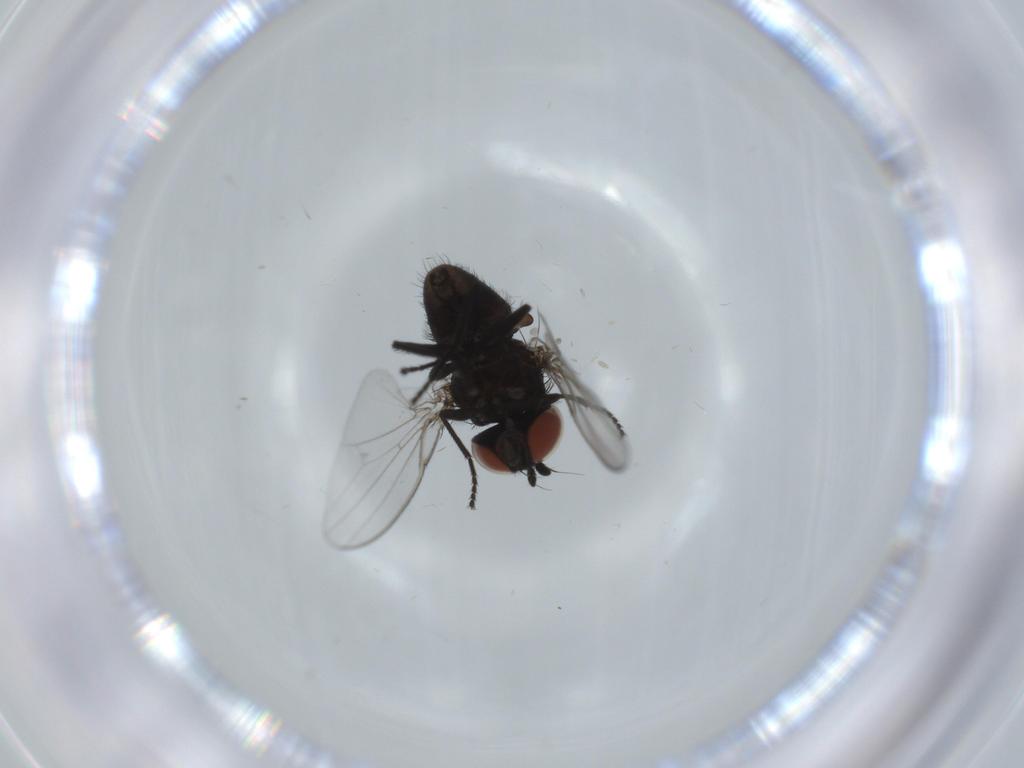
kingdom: Animalia
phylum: Arthropoda
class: Insecta
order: Diptera
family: Milichiidae
